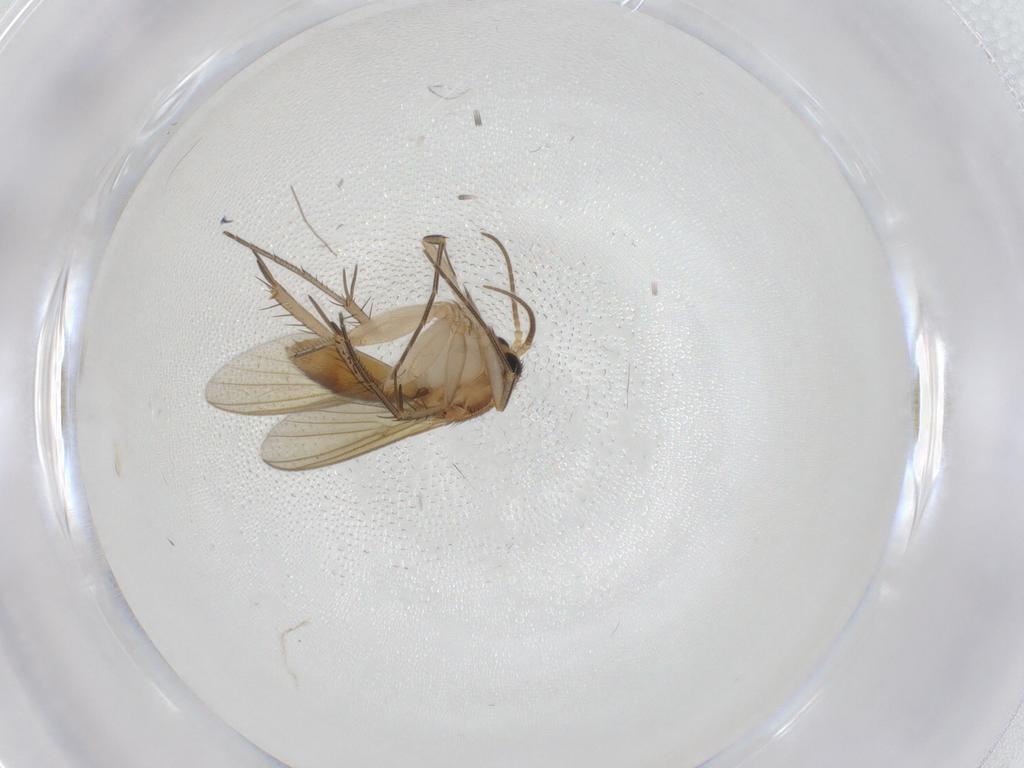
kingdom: Animalia
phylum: Arthropoda
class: Insecta
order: Diptera
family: Mycetophilidae
